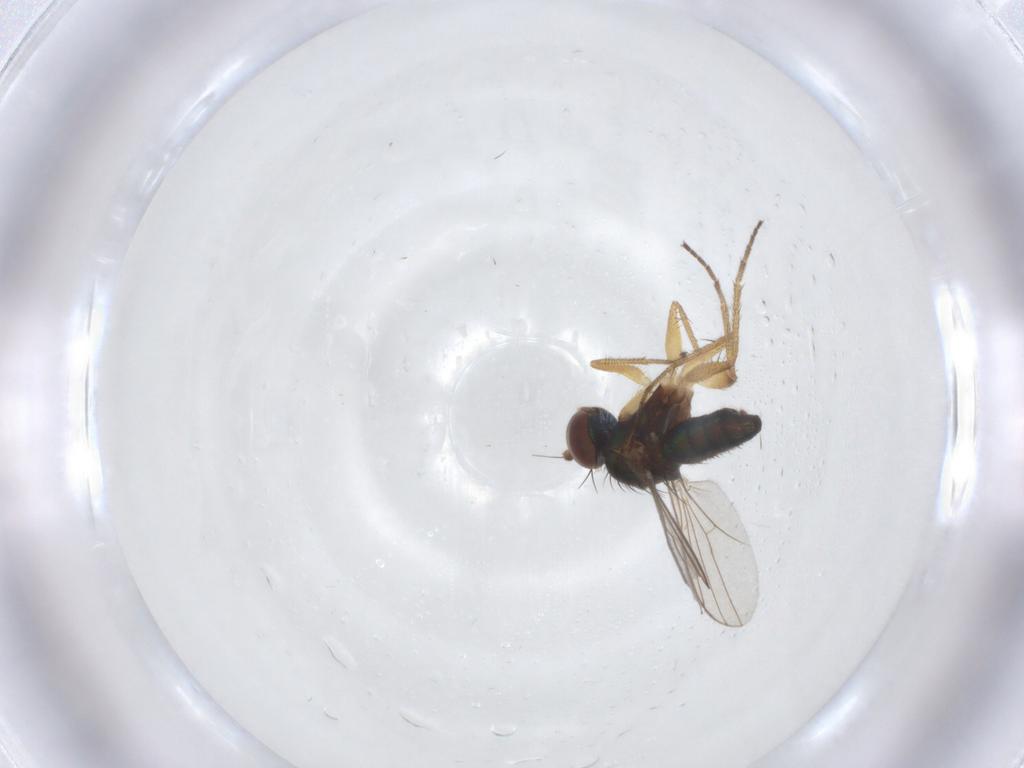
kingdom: Animalia
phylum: Arthropoda
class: Insecta
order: Diptera
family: Dolichopodidae
